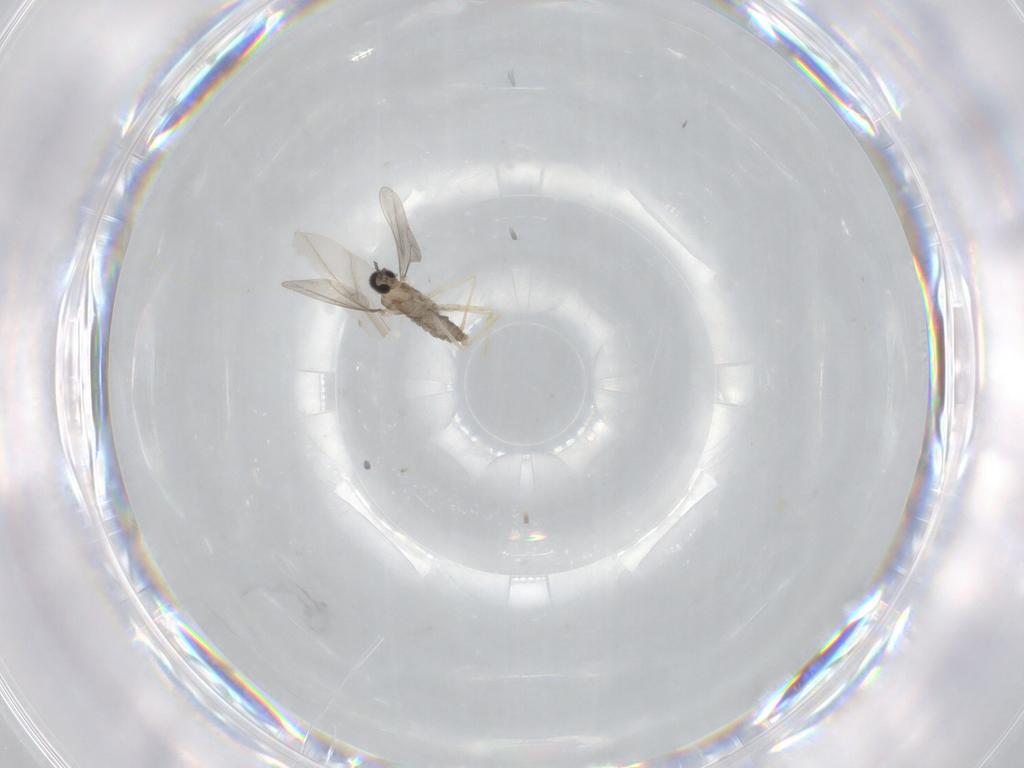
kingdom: Animalia
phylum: Arthropoda
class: Insecta
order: Diptera
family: Cecidomyiidae
